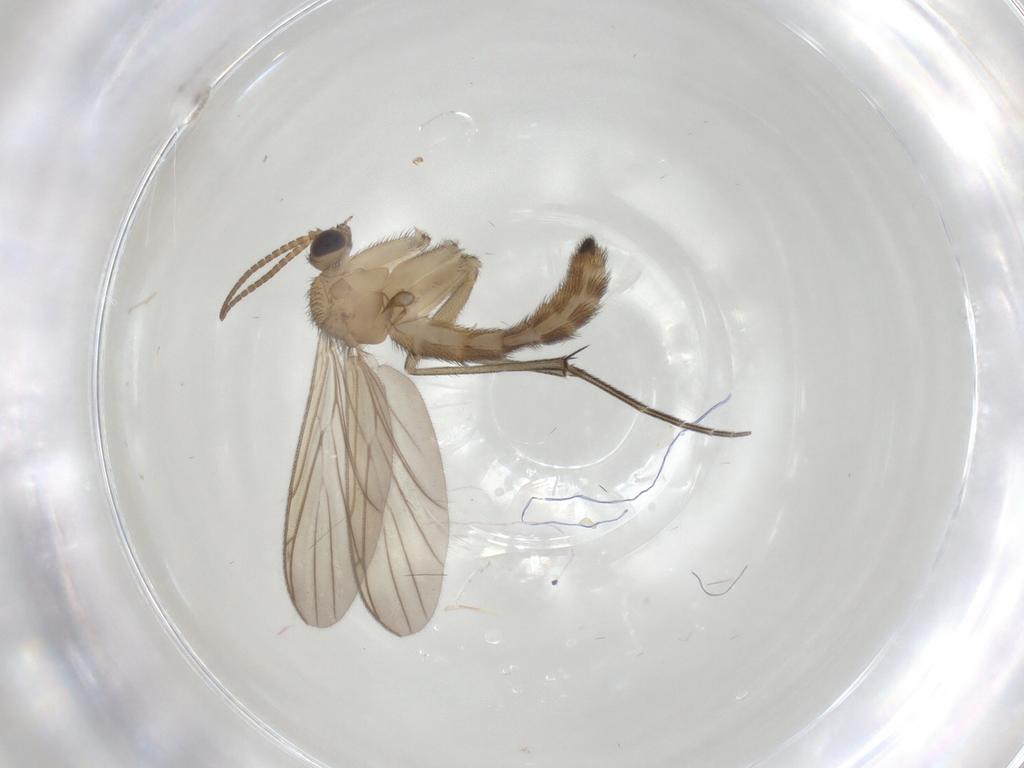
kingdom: Animalia
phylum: Arthropoda
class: Insecta
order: Diptera
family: Keroplatidae
